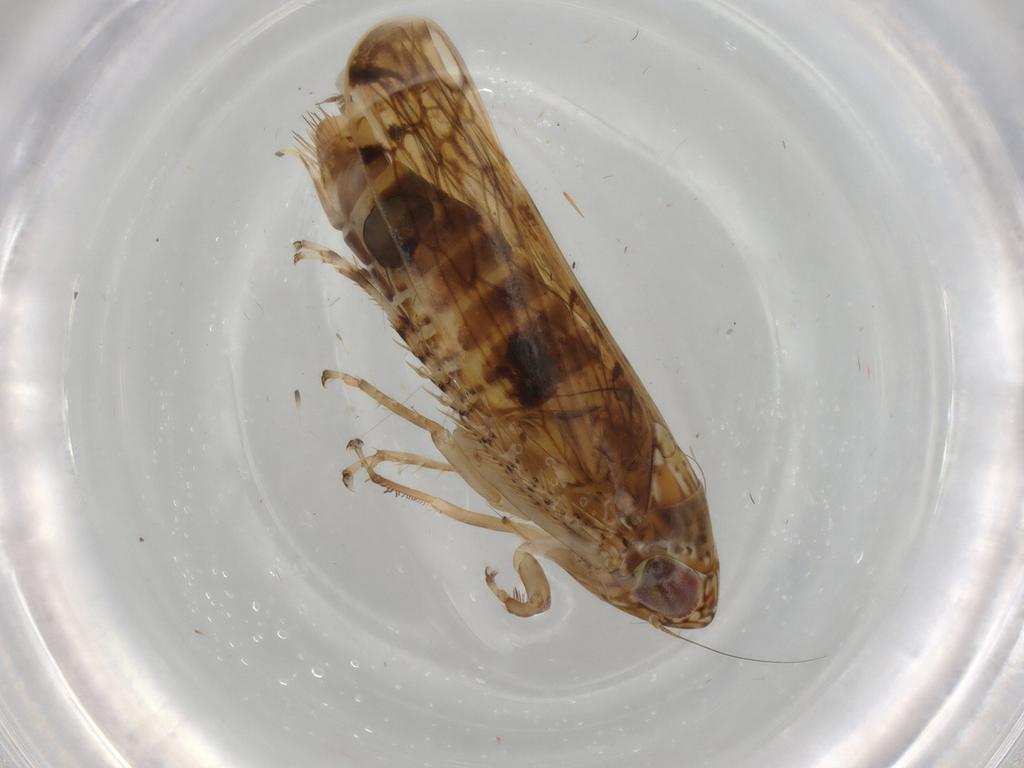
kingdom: Animalia
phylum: Arthropoda
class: Insecta
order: Hemiptera
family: Cicadellidae
